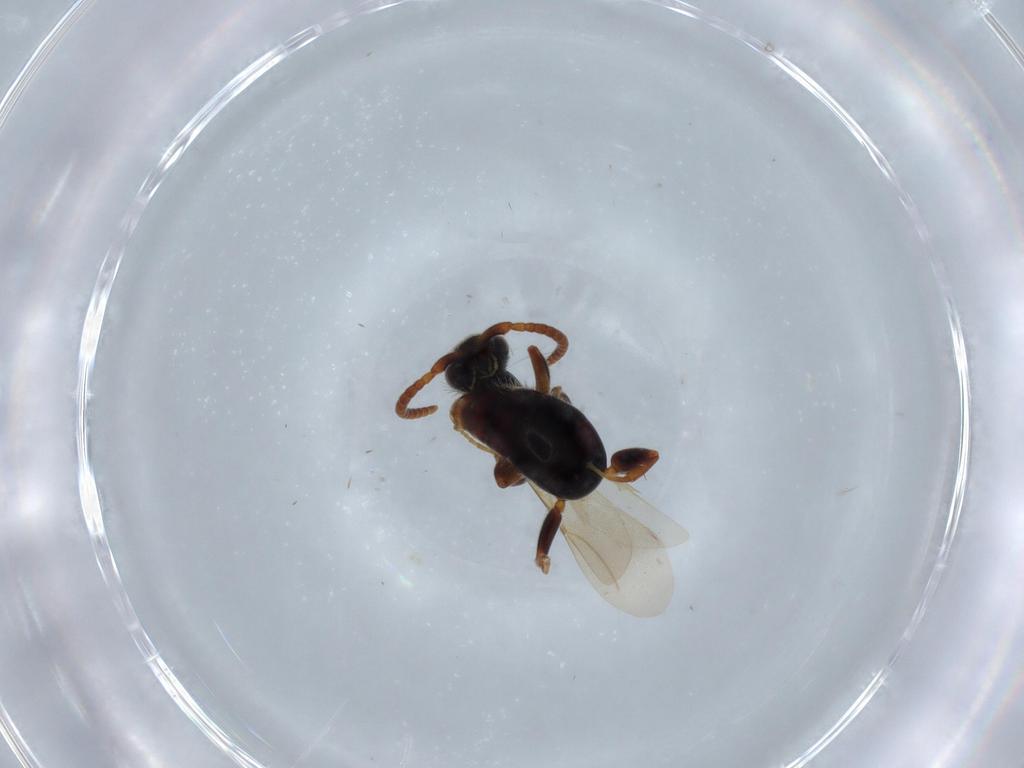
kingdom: Animalia
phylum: Arthropoda
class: Insecta
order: Hymenoptera
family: Bethylidae
